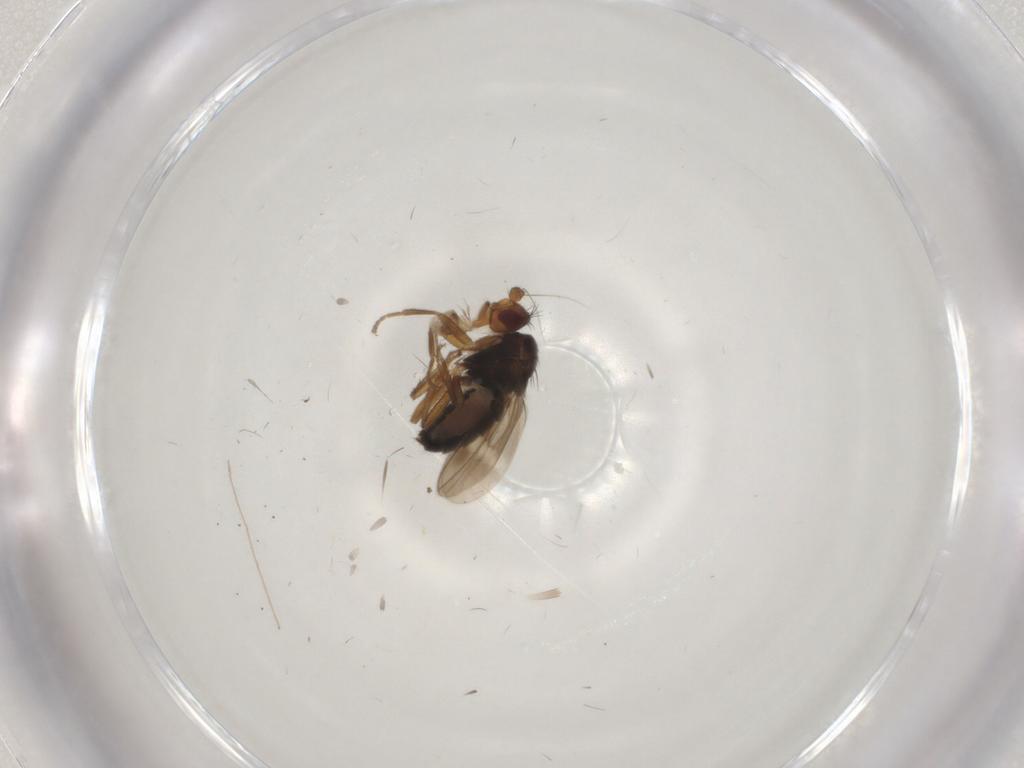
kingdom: Animalia
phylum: Arthropoda
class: Insecta
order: Diptera
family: Sphaeroceridae
